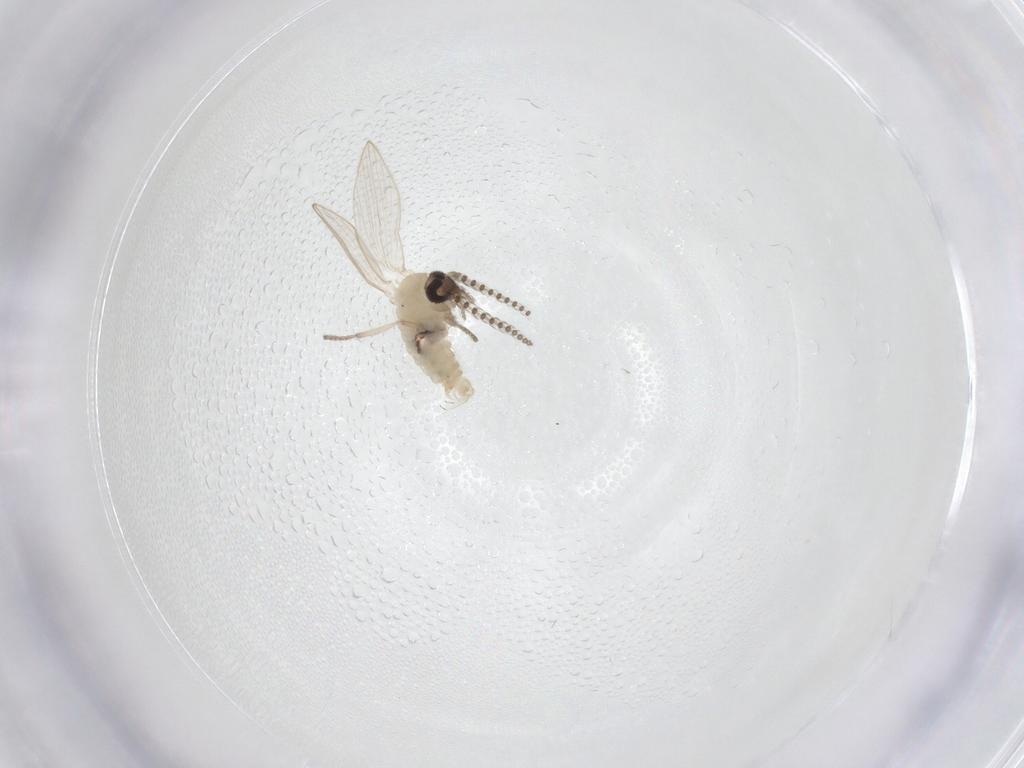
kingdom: Animalia
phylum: Arthropoda
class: Insecta
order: Diptera
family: Psychodidae
